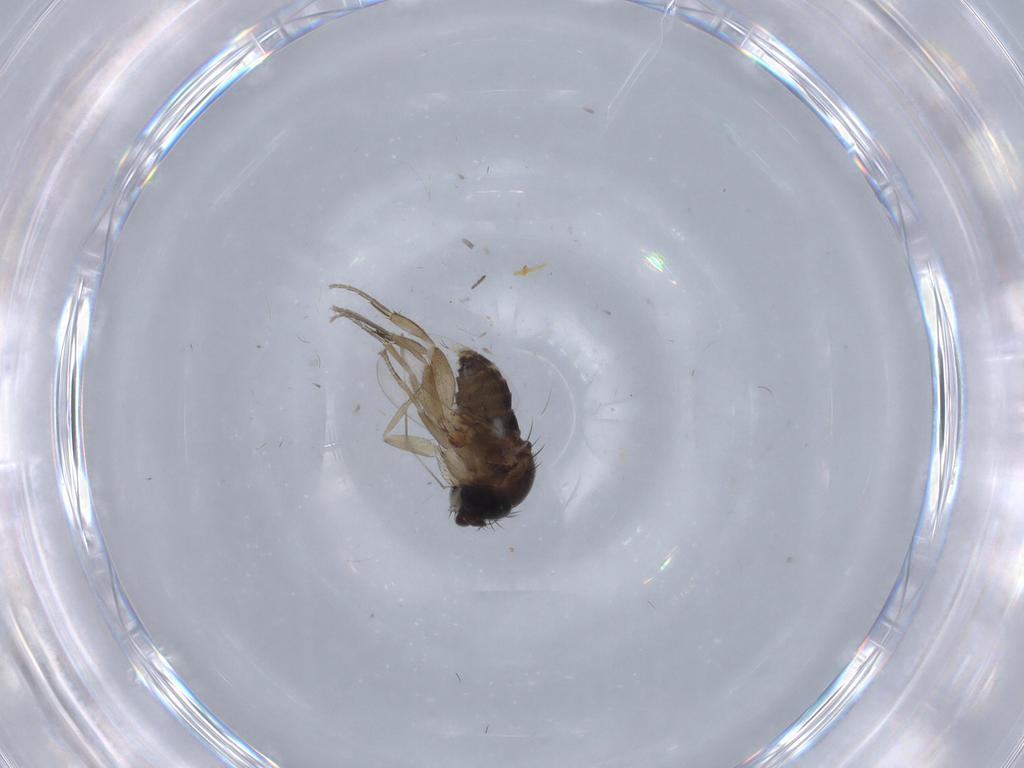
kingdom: Animalia
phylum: Arthropoda
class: Insecta
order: Diptera
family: Sciaridae
